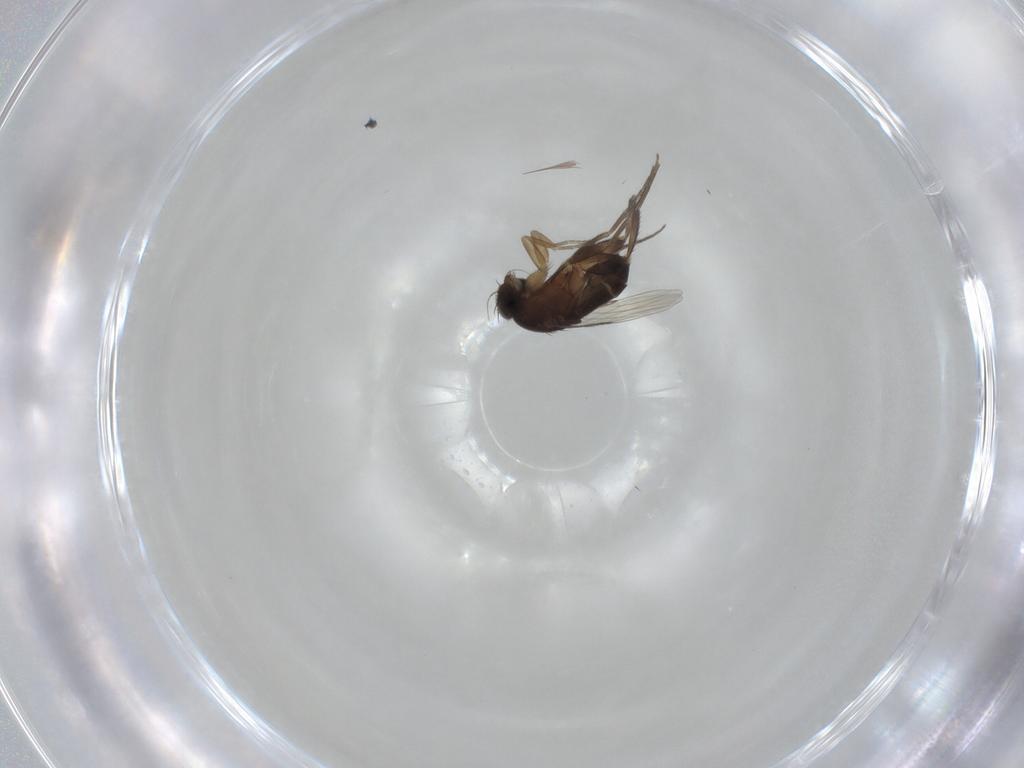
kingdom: Animalia
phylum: Arthropoda
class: Insecta
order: Diptera
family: Phoridae
